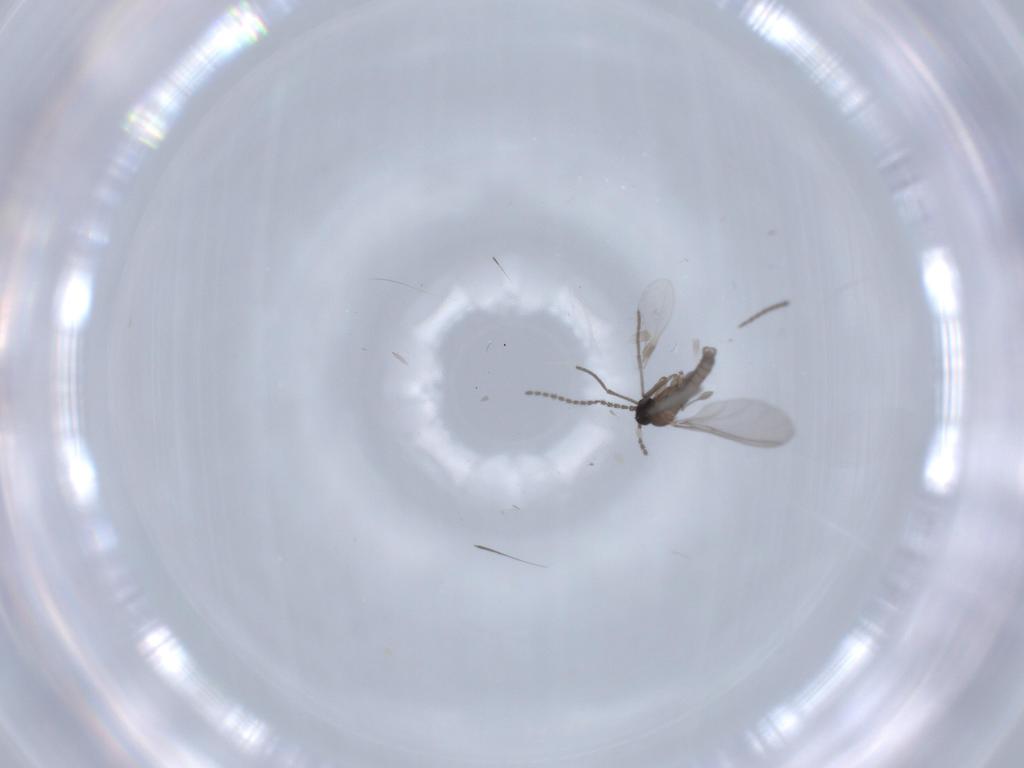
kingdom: Animalia
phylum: Arthropoda
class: Insecta
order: Diptera
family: Sciaridae
